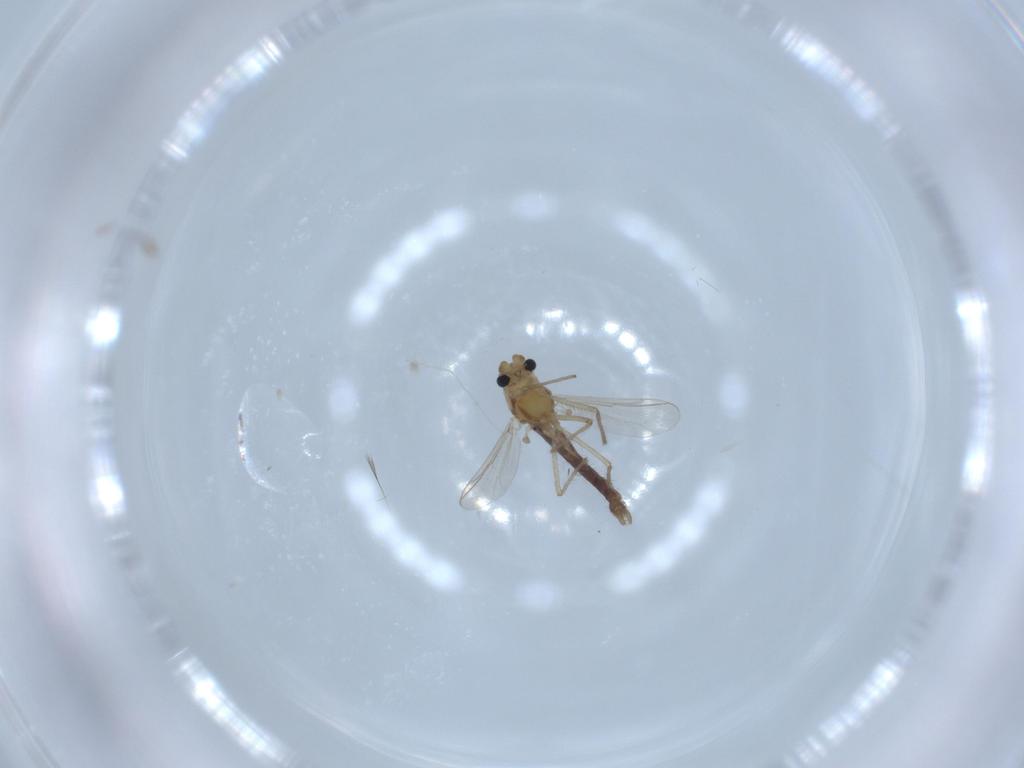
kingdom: Animalia
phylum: Arthropoda
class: Insecta
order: Diptera
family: Chironomidae
